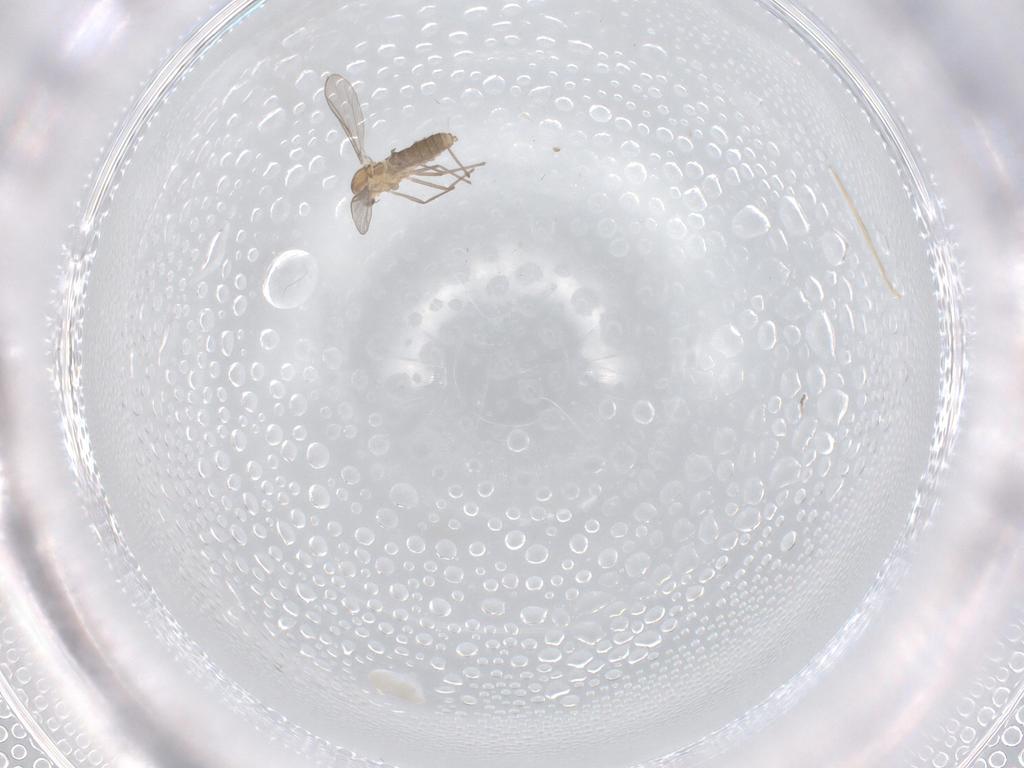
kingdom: Animalia
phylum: Arthropoda
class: Insecta
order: Diptera
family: Chironomidae
